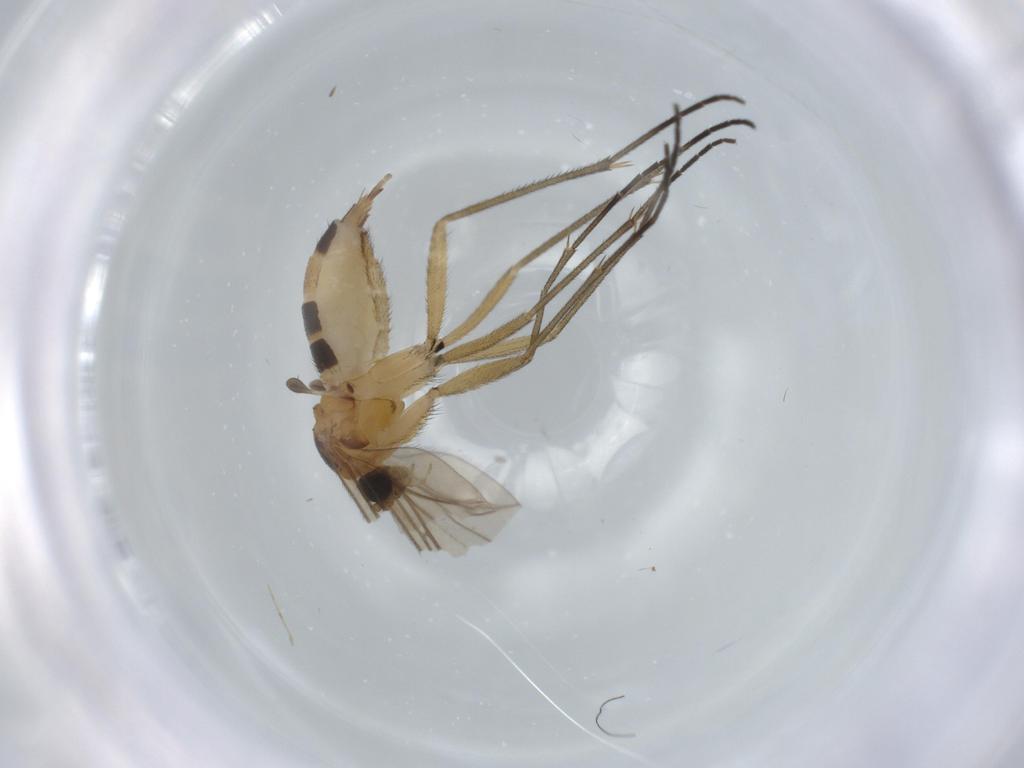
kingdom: Animalia
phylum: Arthropoda
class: Insecta
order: Diptera
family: Sciaridae
